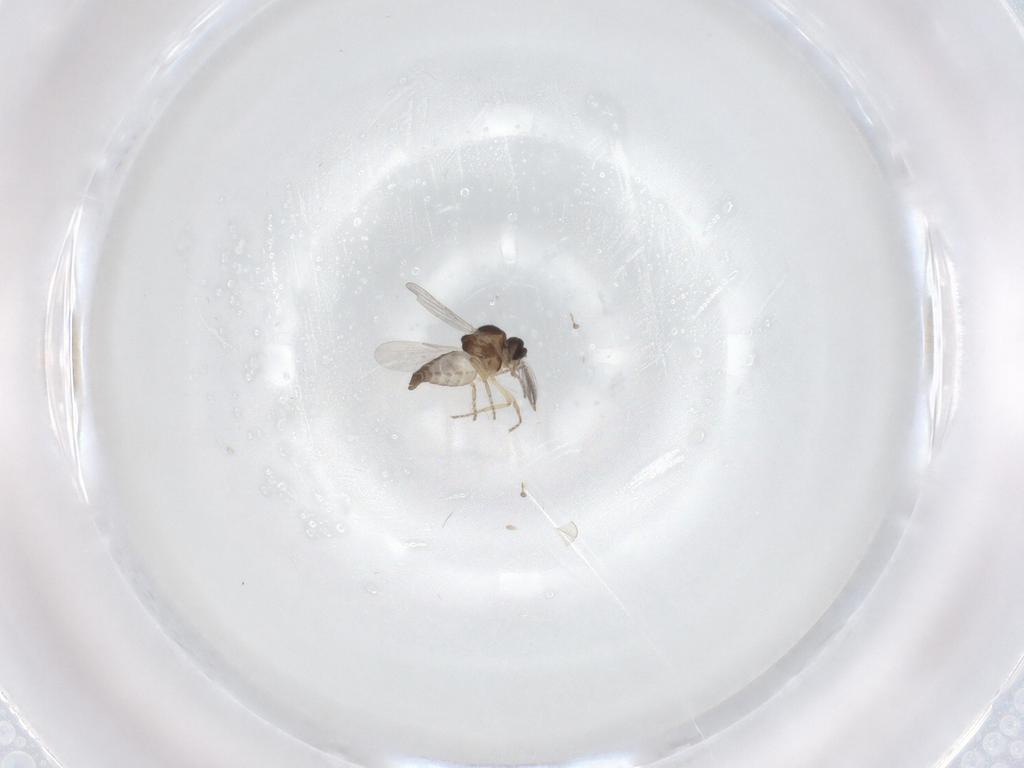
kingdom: Animalia
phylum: Arthropoda
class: Insecta
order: Diptera
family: Ceratopogonidae
